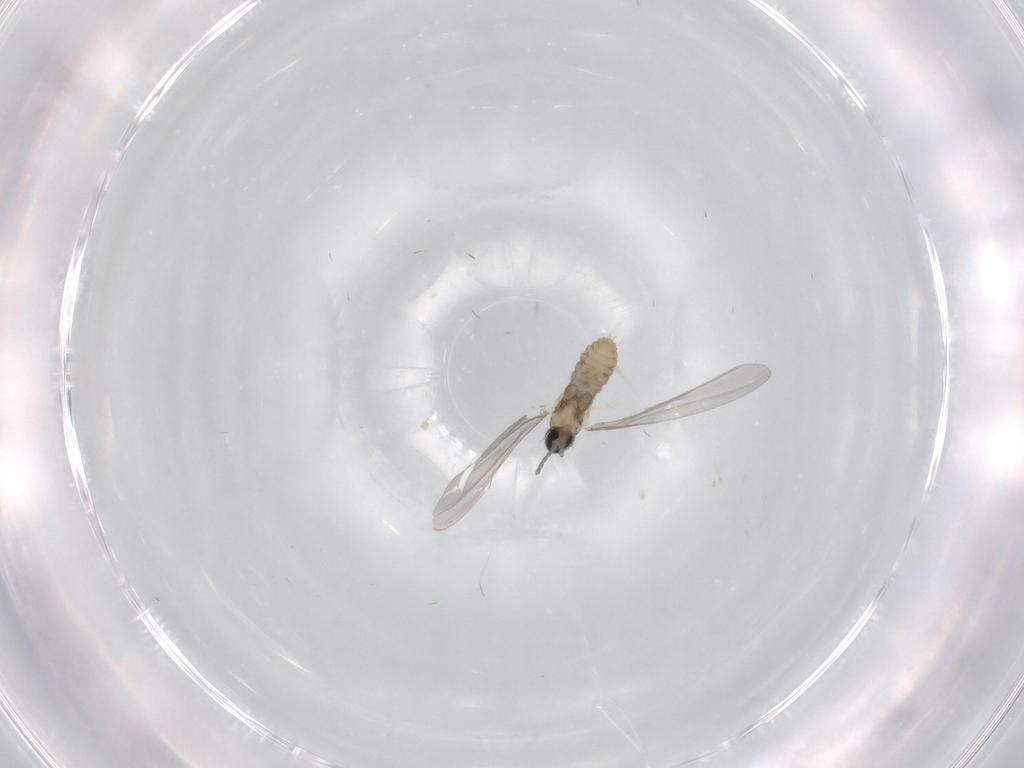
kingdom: Animalia
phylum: Arthropoda
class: Insecta
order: Diptera
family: Cecidomyiidae
